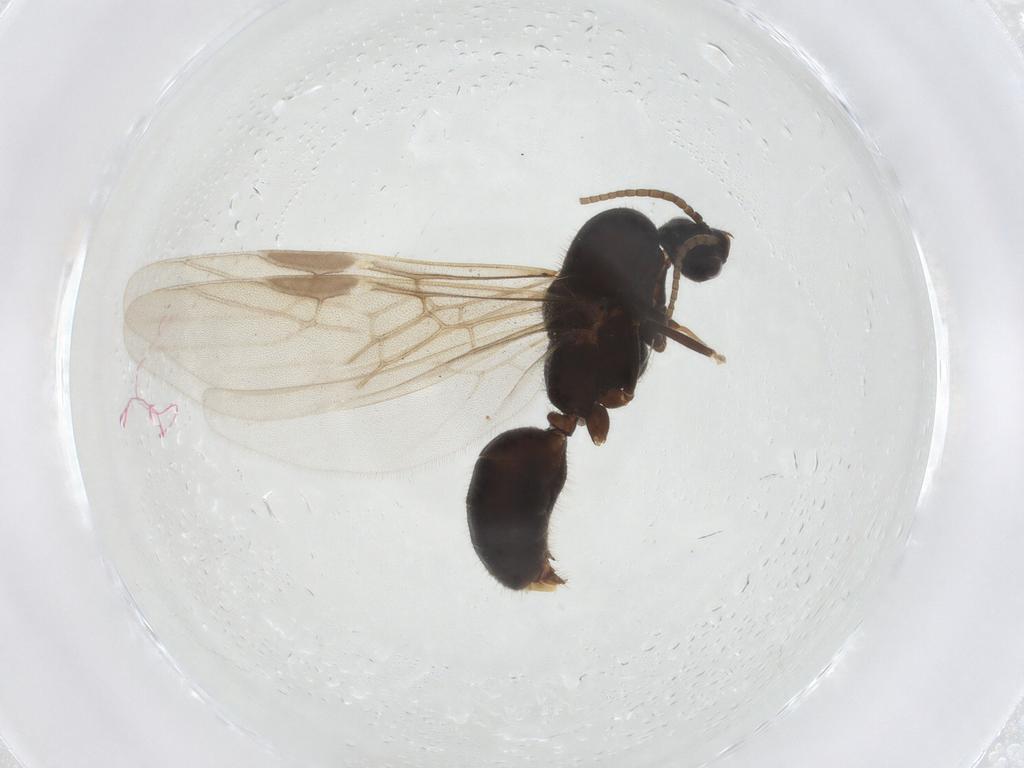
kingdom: Animalia
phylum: Arthropoda
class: Insecta
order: Hymenoptera
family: Formicidae
